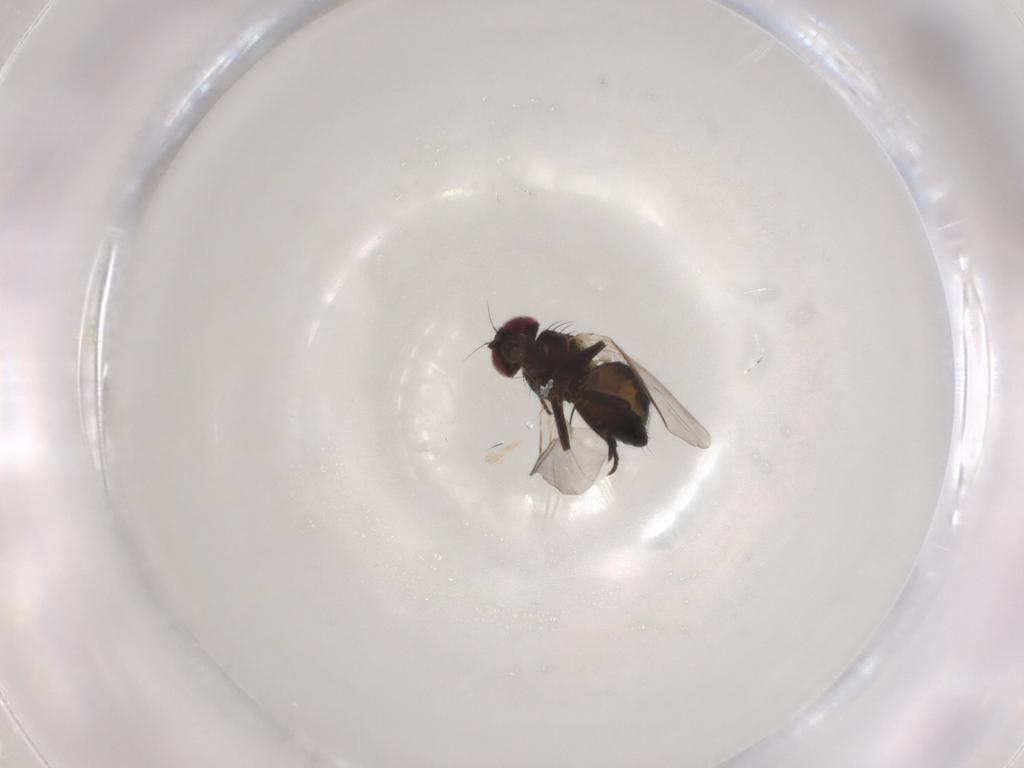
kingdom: Animalia
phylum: Arthropoda
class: Insecta
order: Diptera
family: Agromyzidae
